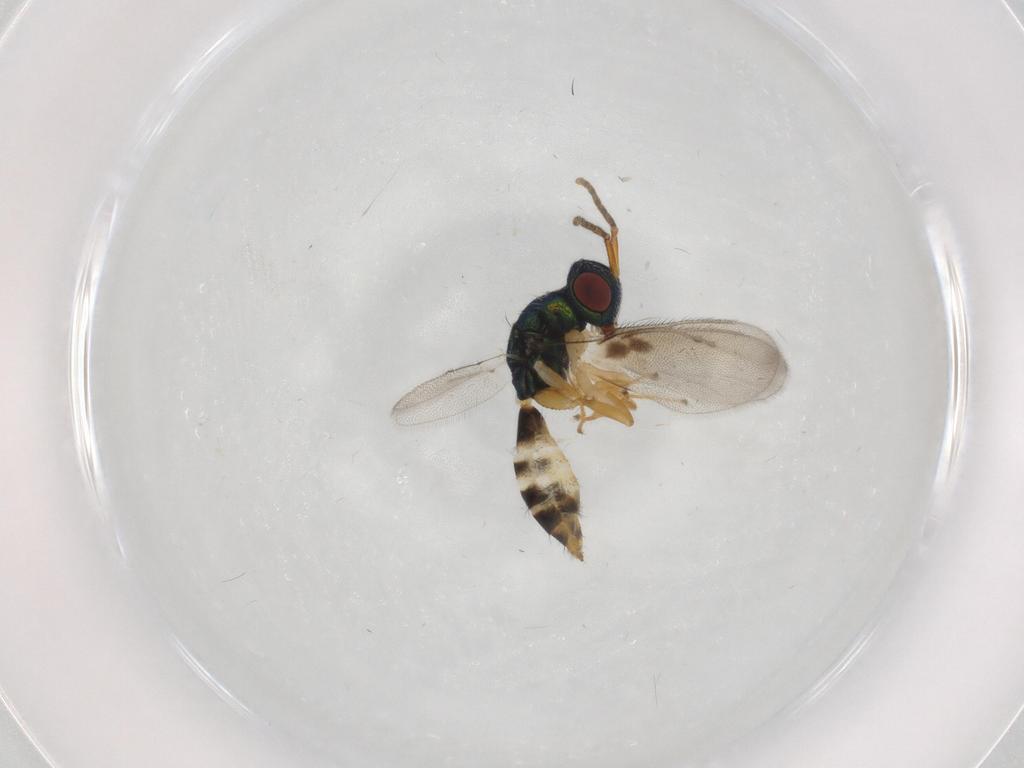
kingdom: Animalia
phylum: Arthropoda
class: Insecta
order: Hymenoptera
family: Pteromalidae
